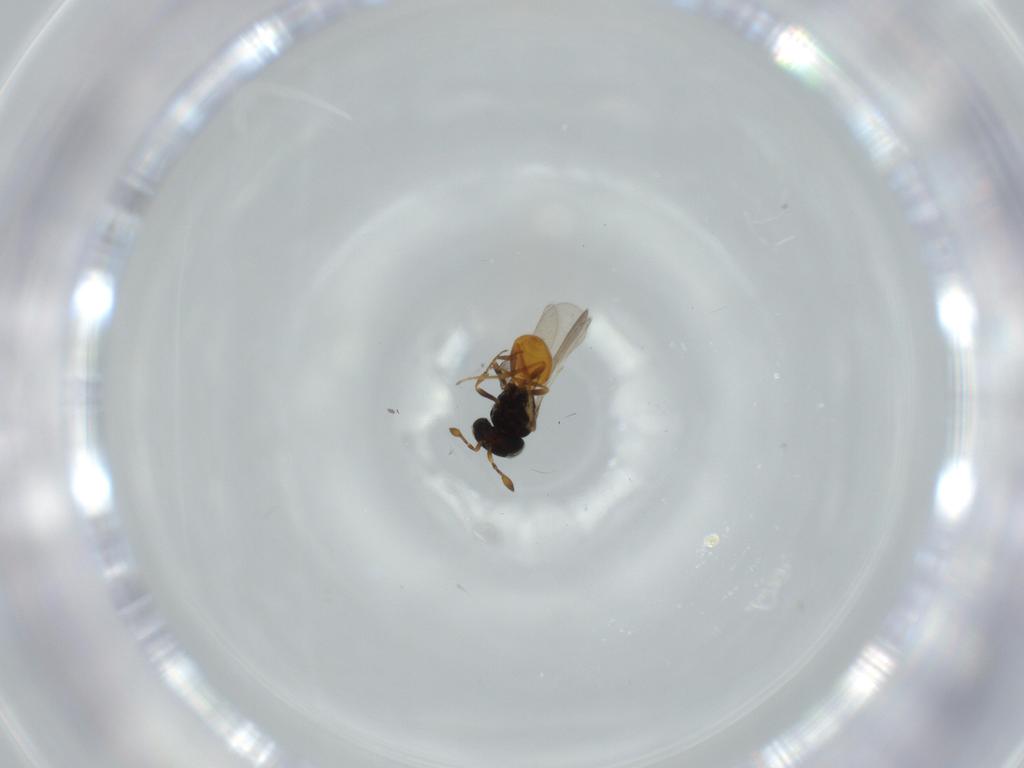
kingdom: Animalia
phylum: Arthropoda
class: Insecta
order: Hymenoptera
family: Scelionidae
